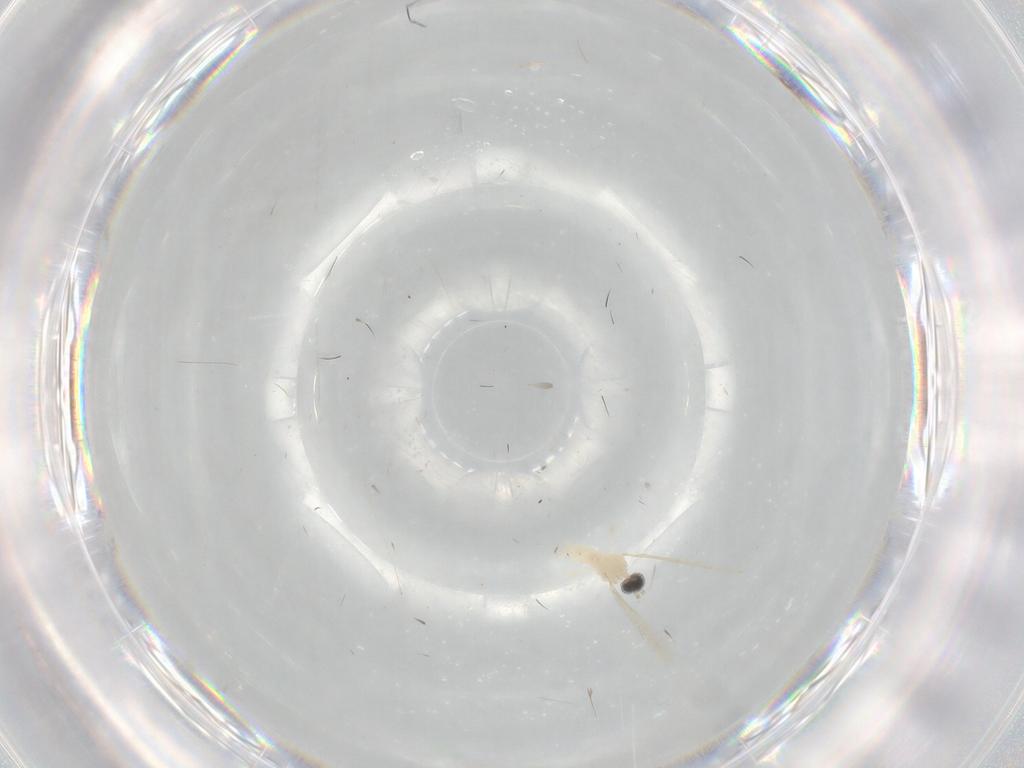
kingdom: Animalia
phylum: Arthropoda
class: Insecta
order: Diptera
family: Cecidomyiidae
